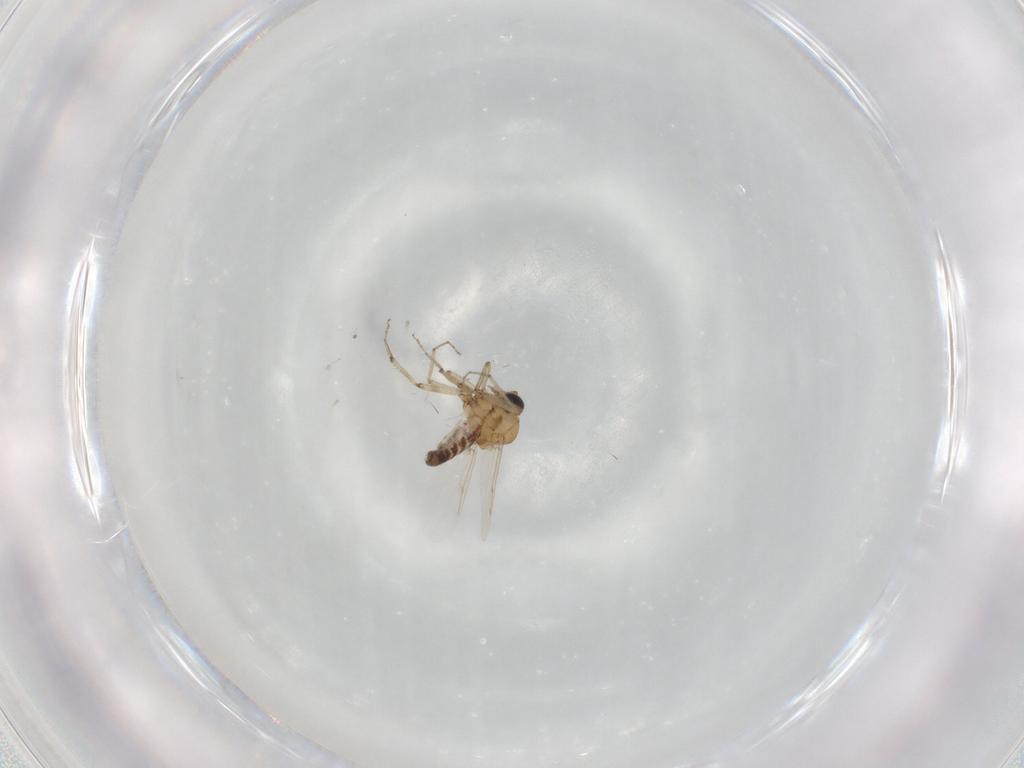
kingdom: Animalia
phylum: Arthropoda
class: Insecta
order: Diptera
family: Ceratopogonidae
